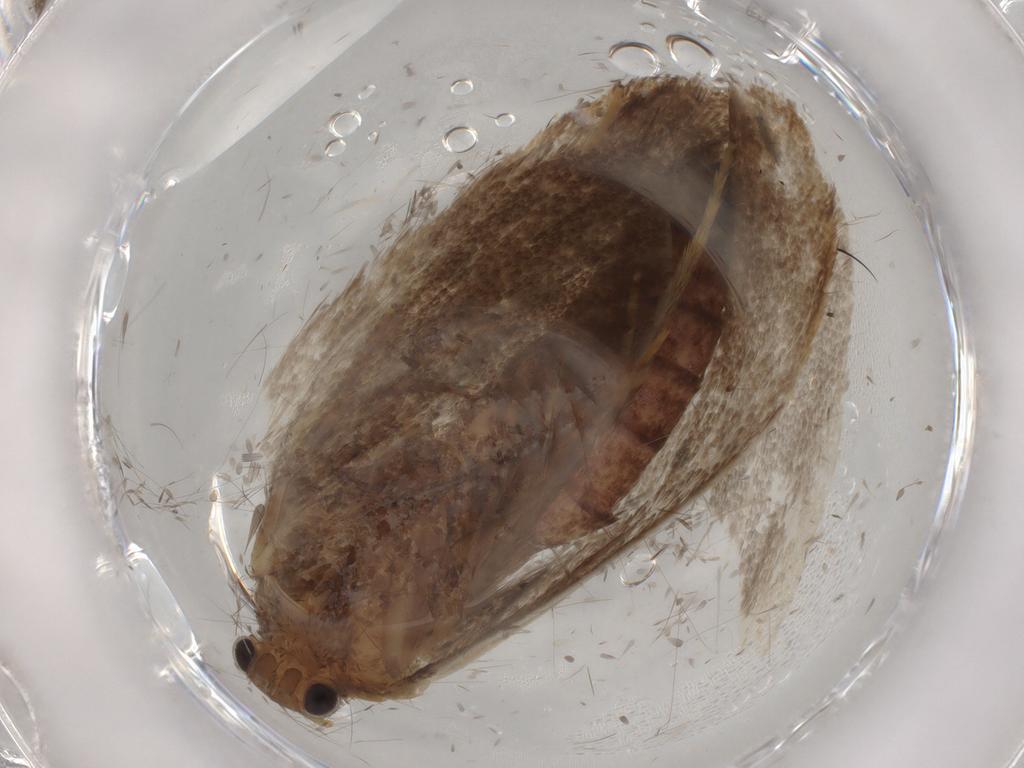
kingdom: Animalia
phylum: Arthropoda
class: Insecta
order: Lepidoptera
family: Tineidae
